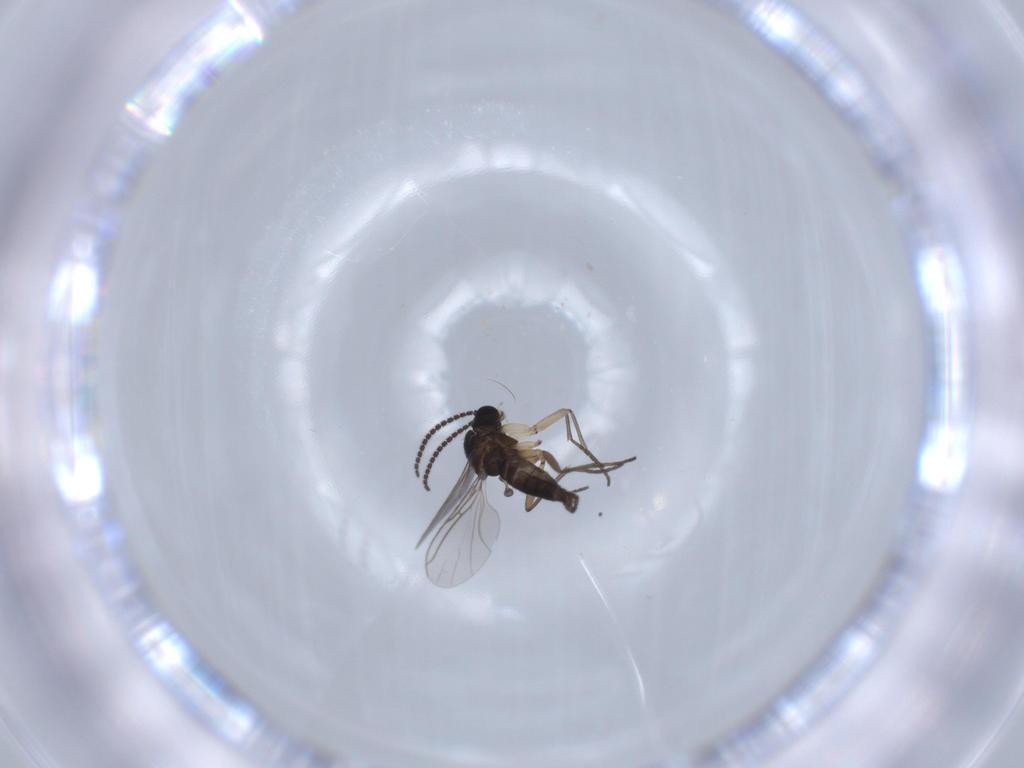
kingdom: Animalia
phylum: Arthropoda
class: Insecta
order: Diptera
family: Sciaridae
